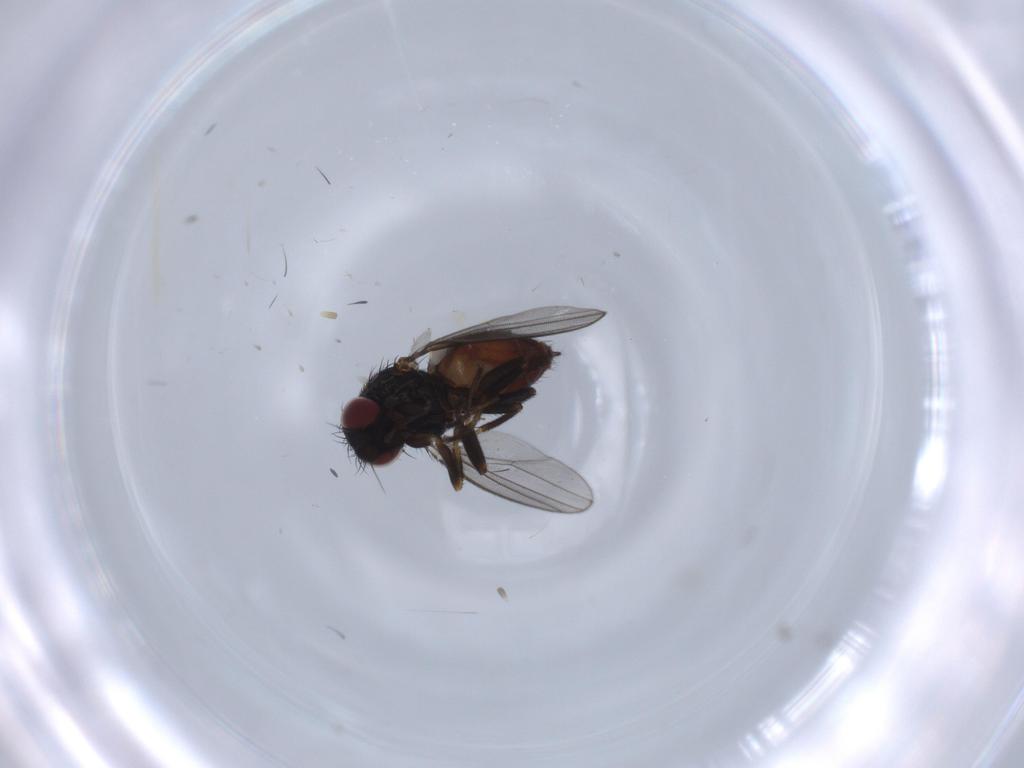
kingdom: Animalia
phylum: Arthropoda
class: Insecta
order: Diptera
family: Milichiidae
